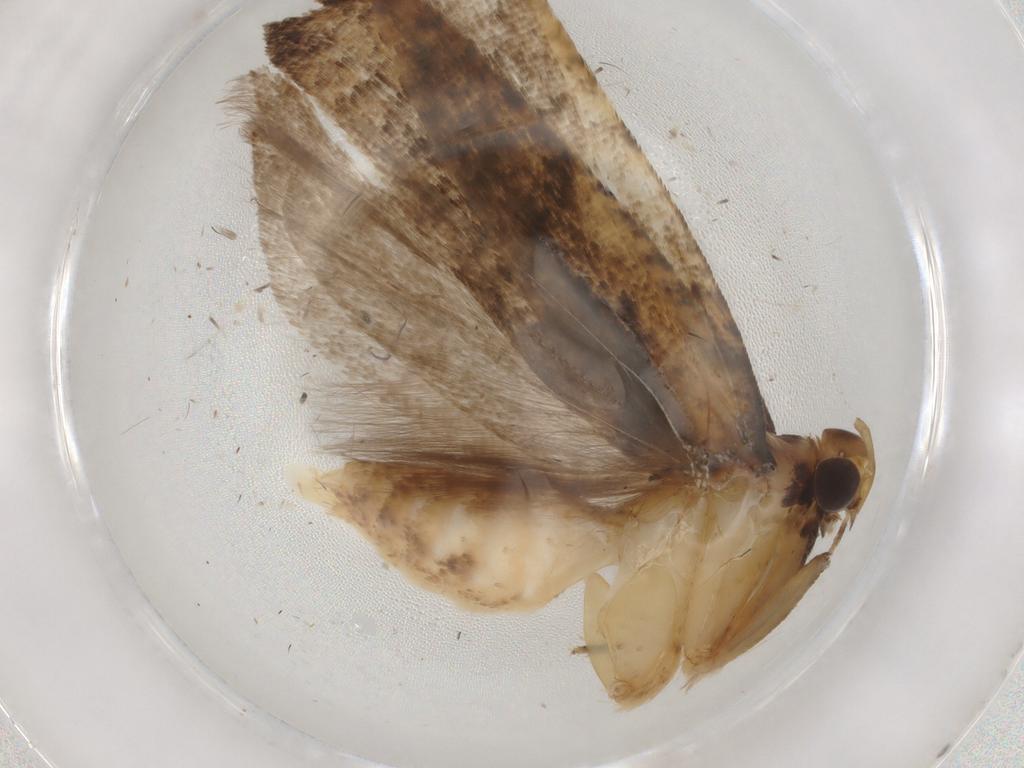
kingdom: Animalia
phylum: Arthropoda
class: Insecta
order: Lepidoptera
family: Gelechiidae
